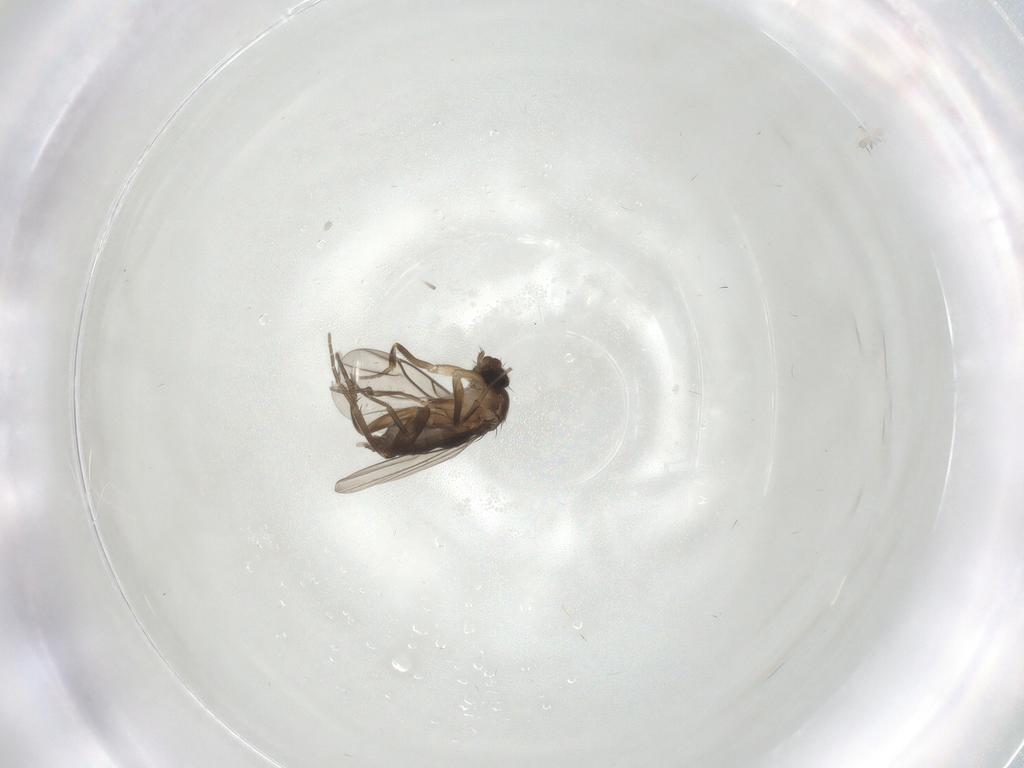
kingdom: Animalia
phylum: Arthropoda
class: Insecta
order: Diptera
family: Phoridae
